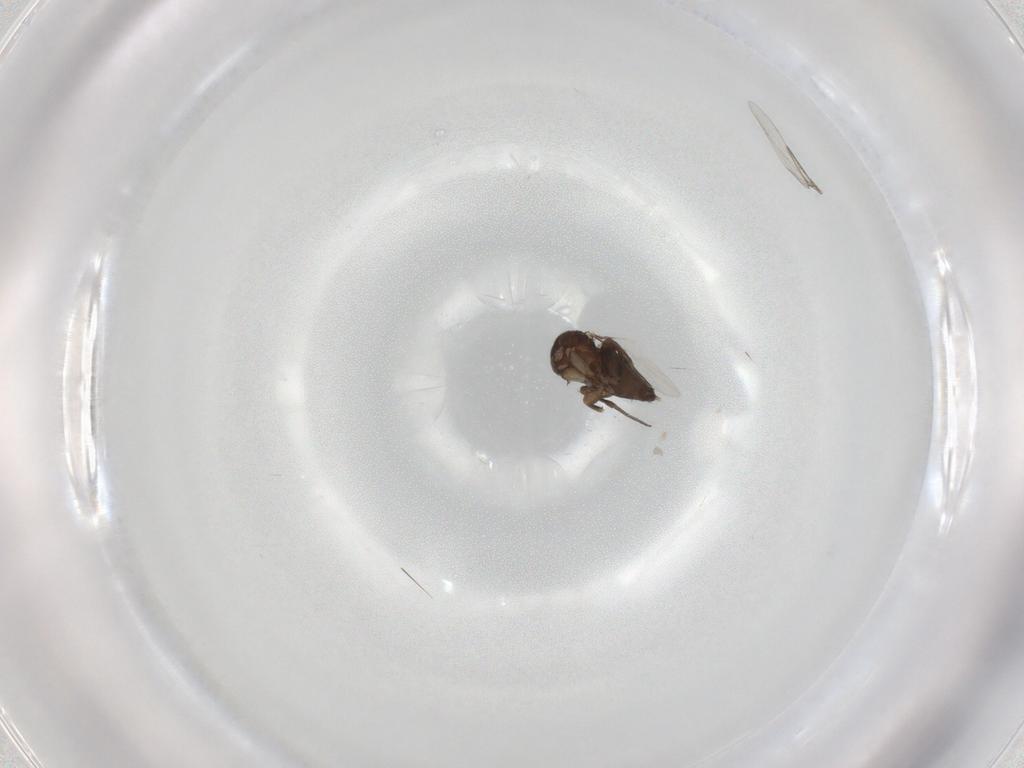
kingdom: Animalia
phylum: Arthropoda
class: Insecta
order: Diptera
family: Phoridae
